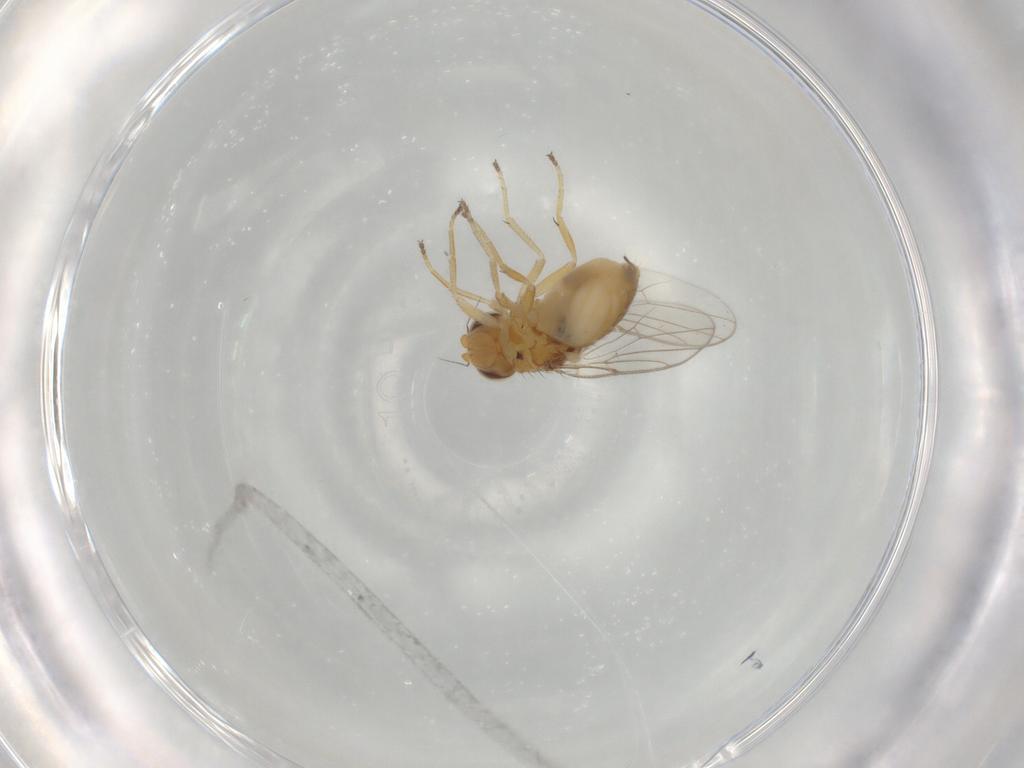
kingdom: Animalia
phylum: Arthropoda
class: Insecta
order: Diptera
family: Chloropidae
